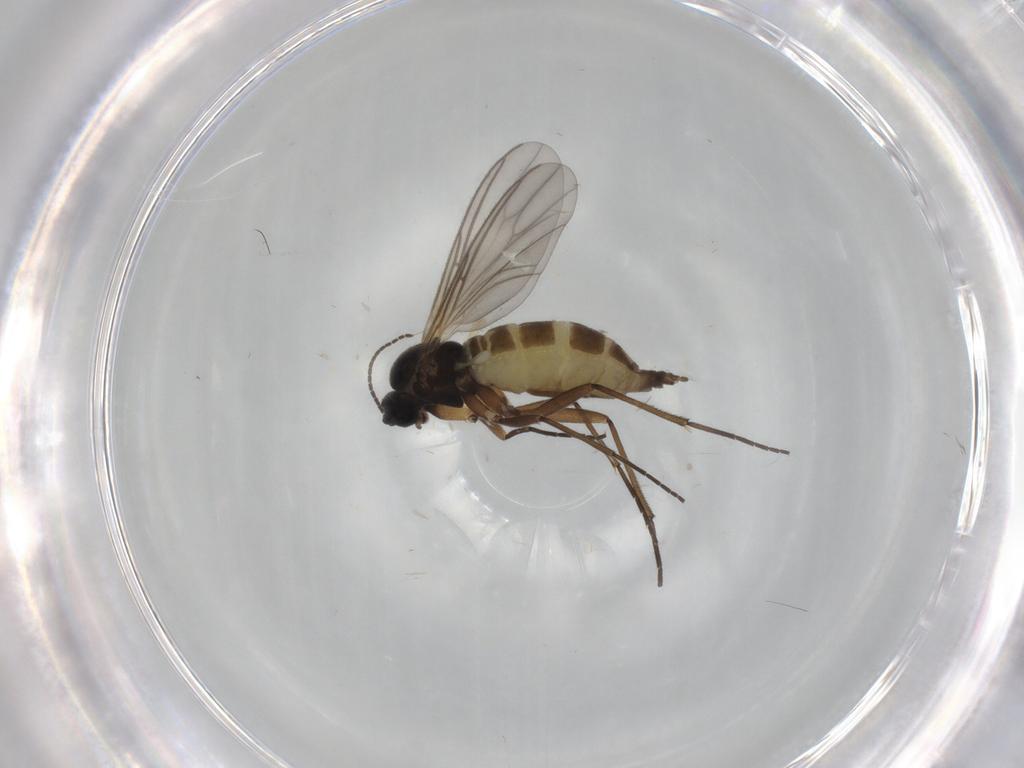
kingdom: Animalia
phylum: Arthropoda
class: Insecta
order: Diptera
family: Sciaridae
